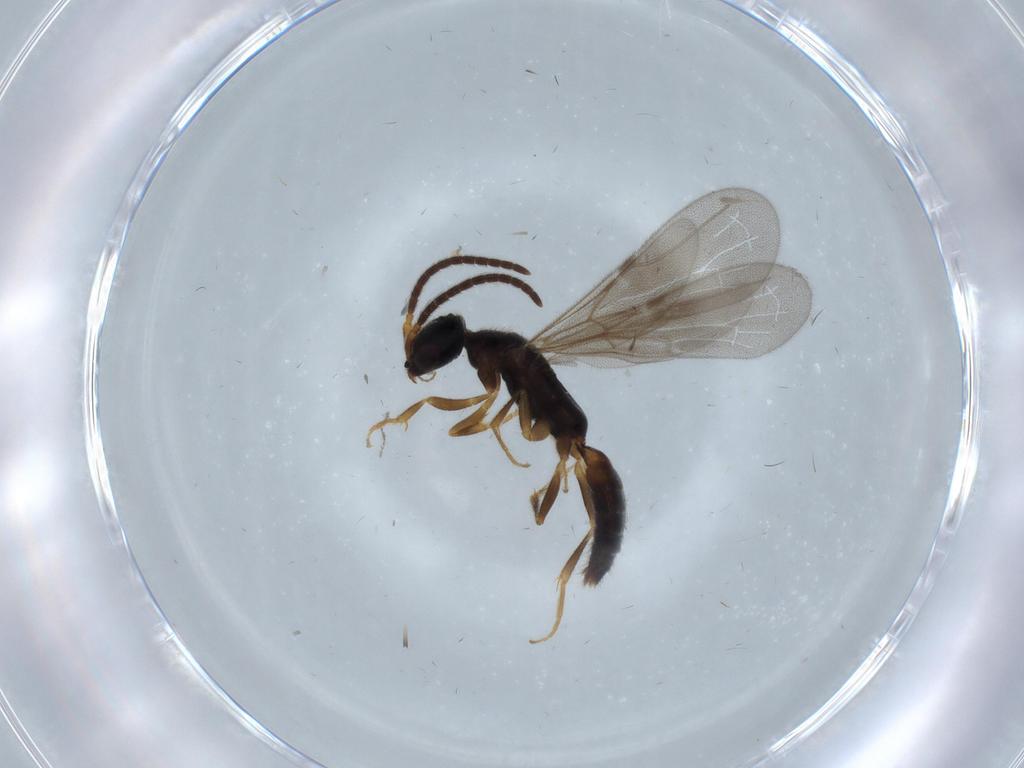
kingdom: Animalia
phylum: Arthropoda
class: Insecta
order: Hymenoptera
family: Bethylidae
